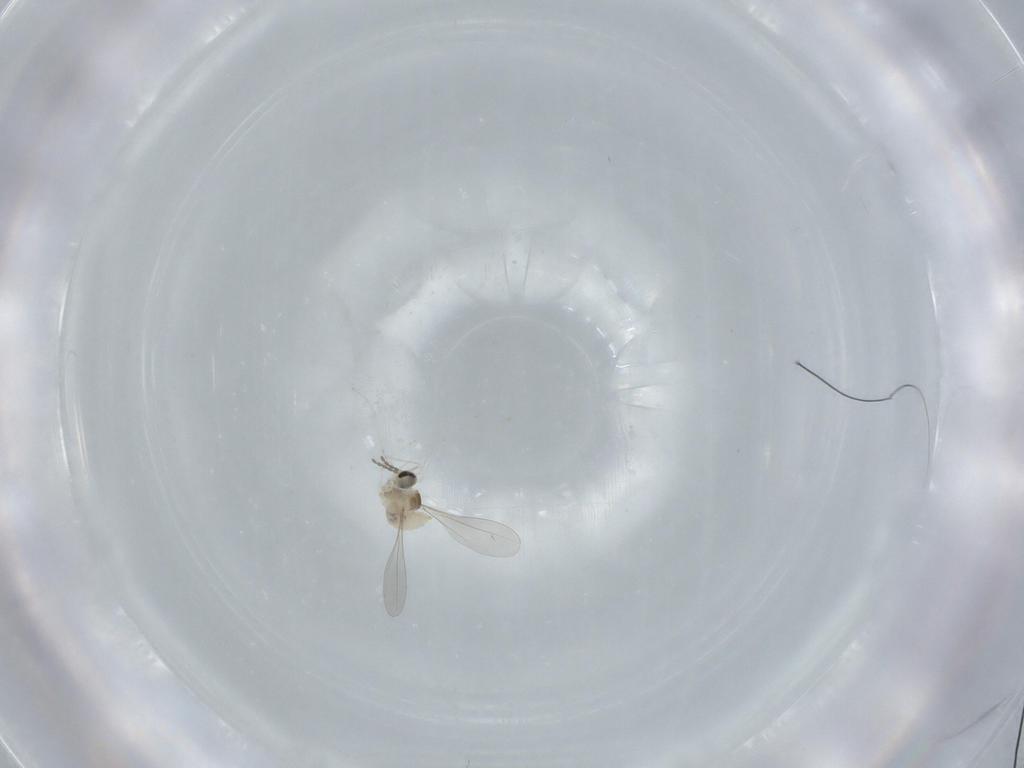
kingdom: Animalia
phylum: Arthropoda
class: Insecta
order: Diptera
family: Cecidomyiidae
